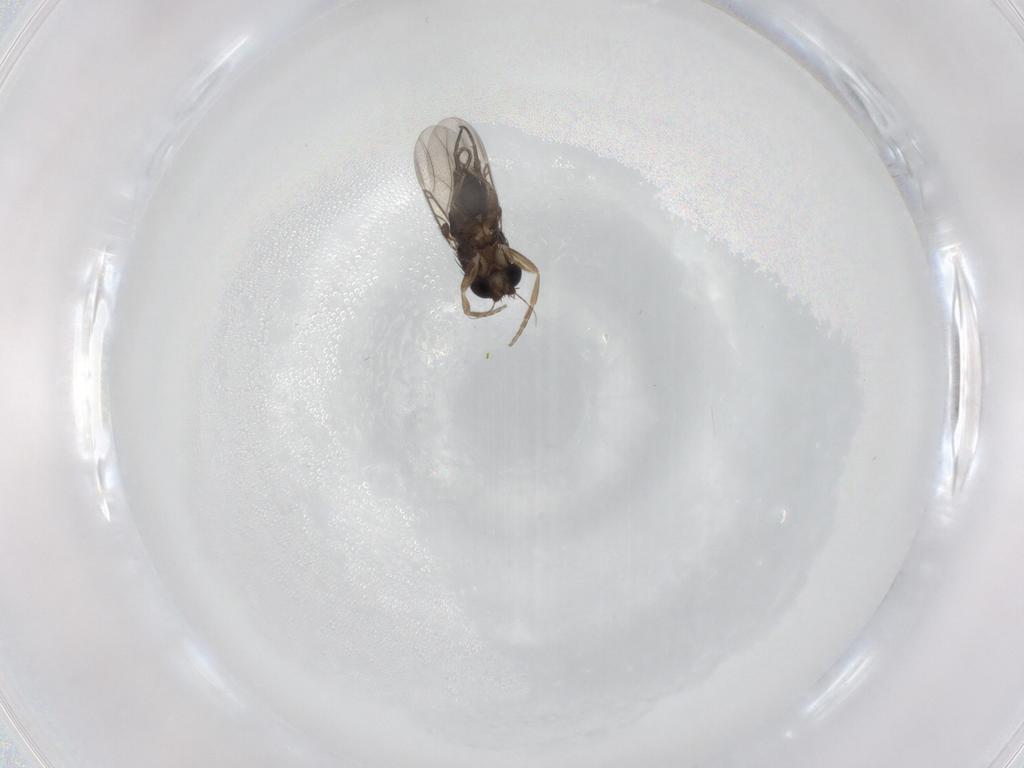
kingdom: Animalia
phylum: Arthropoda
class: Insecta
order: Diptera
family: Phoridae
